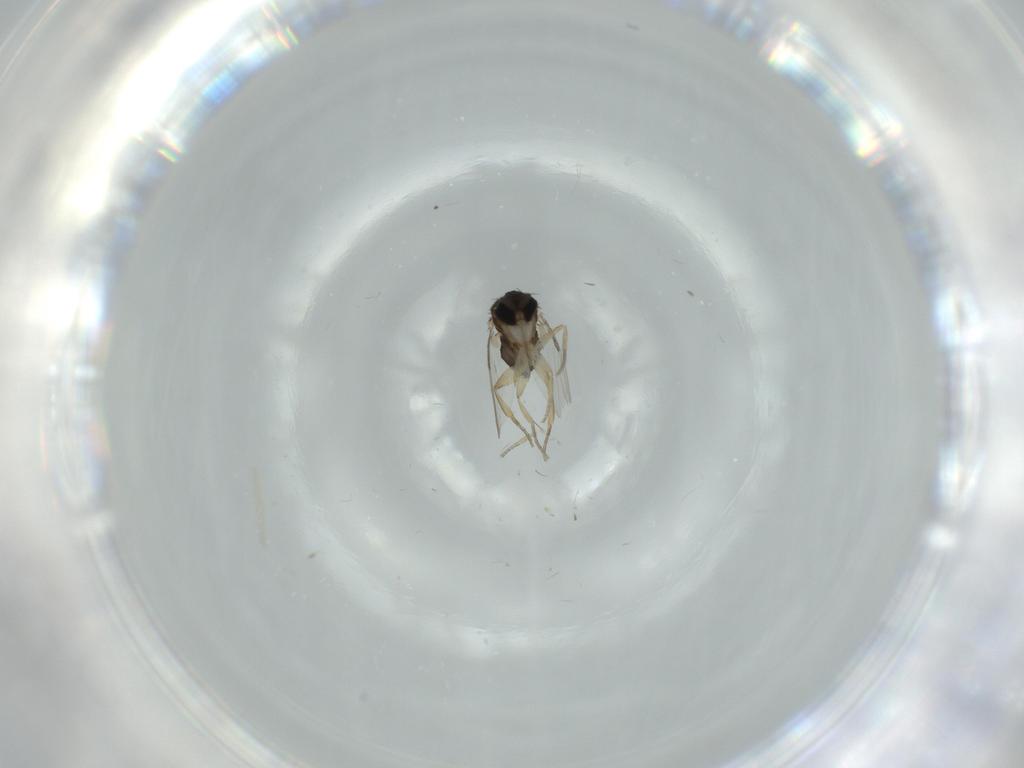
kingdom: Animalia
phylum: Arthropoda
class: Insecta
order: Diptera
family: Phoridae
